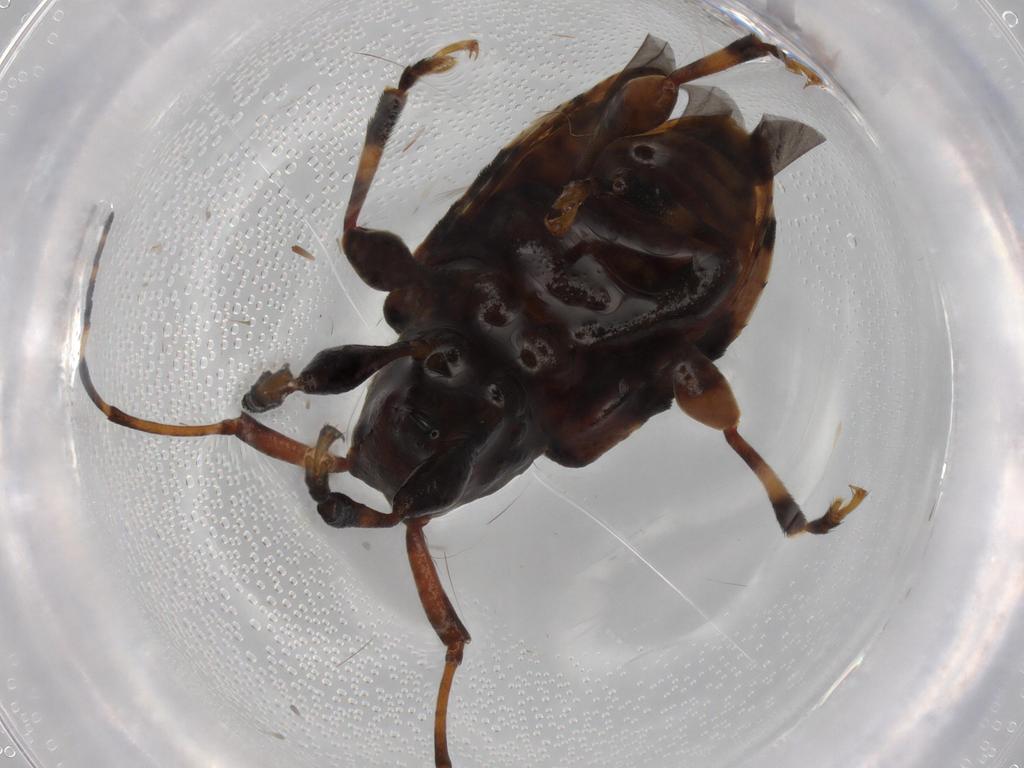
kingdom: Animalia
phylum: Arthropoda
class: Insecta
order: Coleoptera
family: Cerambycidae
